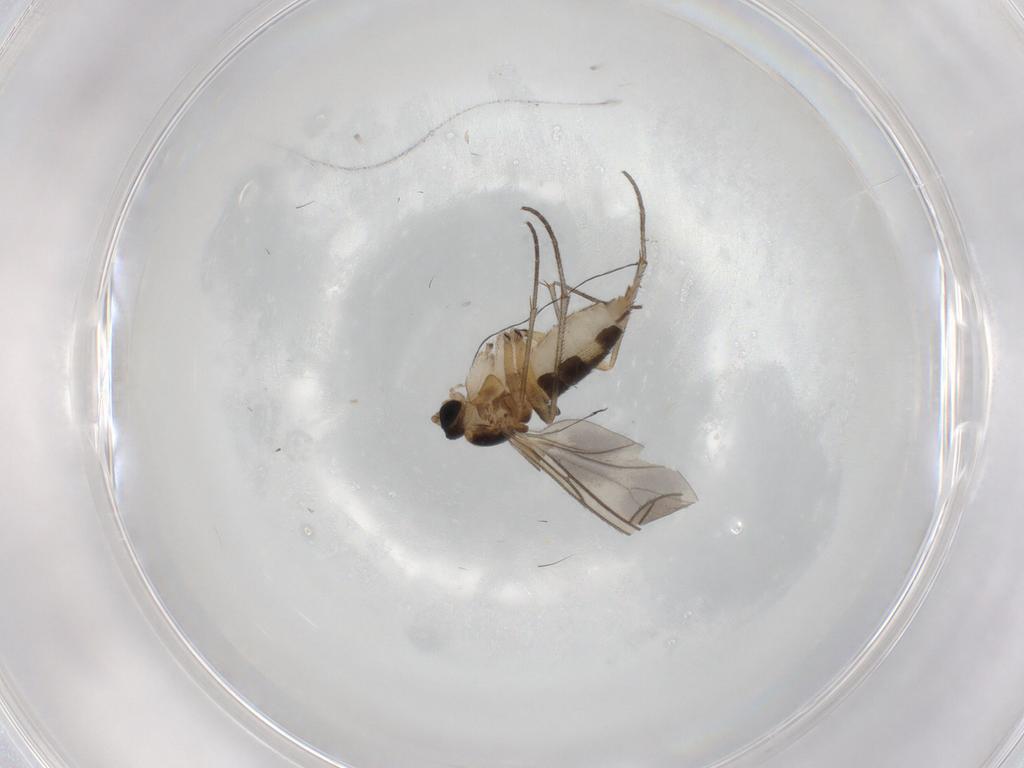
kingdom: Animalia
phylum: Arthropoda
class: Insecta
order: Diptera
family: Sciaridae
